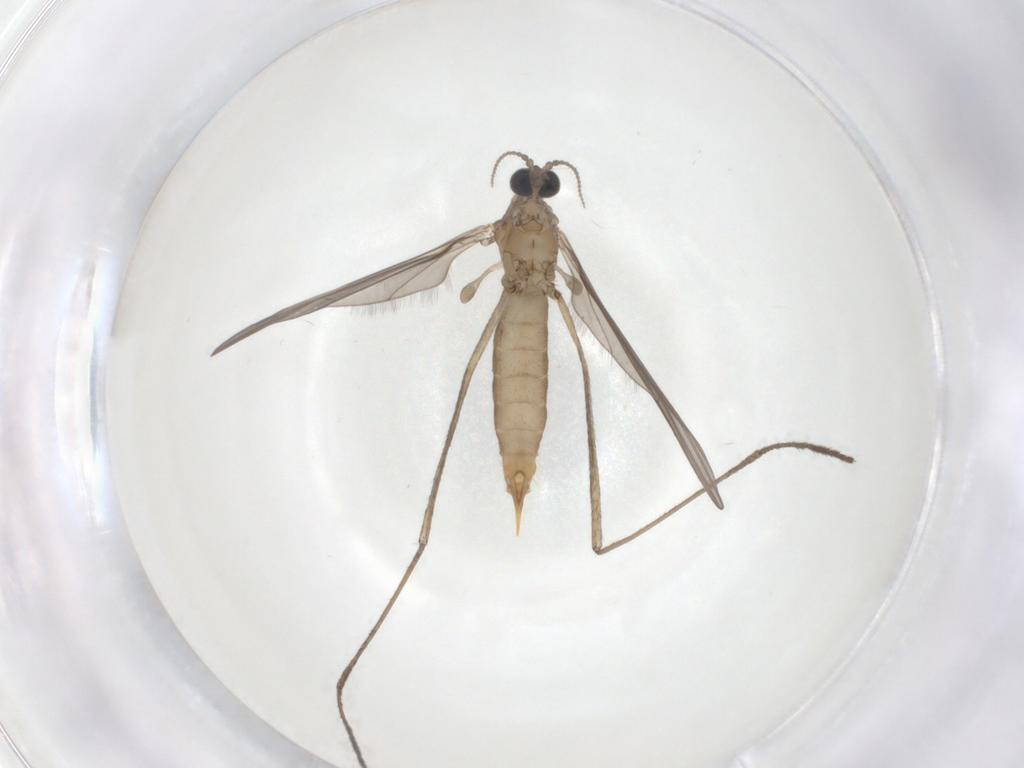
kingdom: Animalia
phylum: Arthropoda
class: Insecta
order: Diptera
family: Limoniidae
